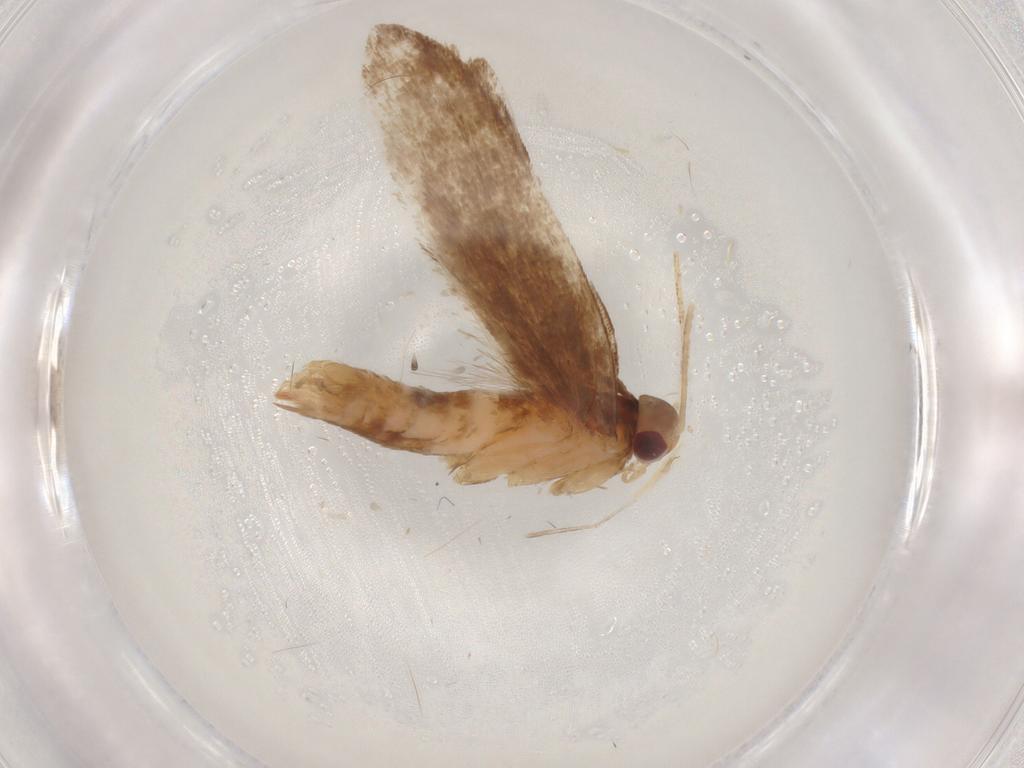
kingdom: Animalia
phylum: Arthropoda
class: Insecta
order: Lepidoptera
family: Gelechiidae
